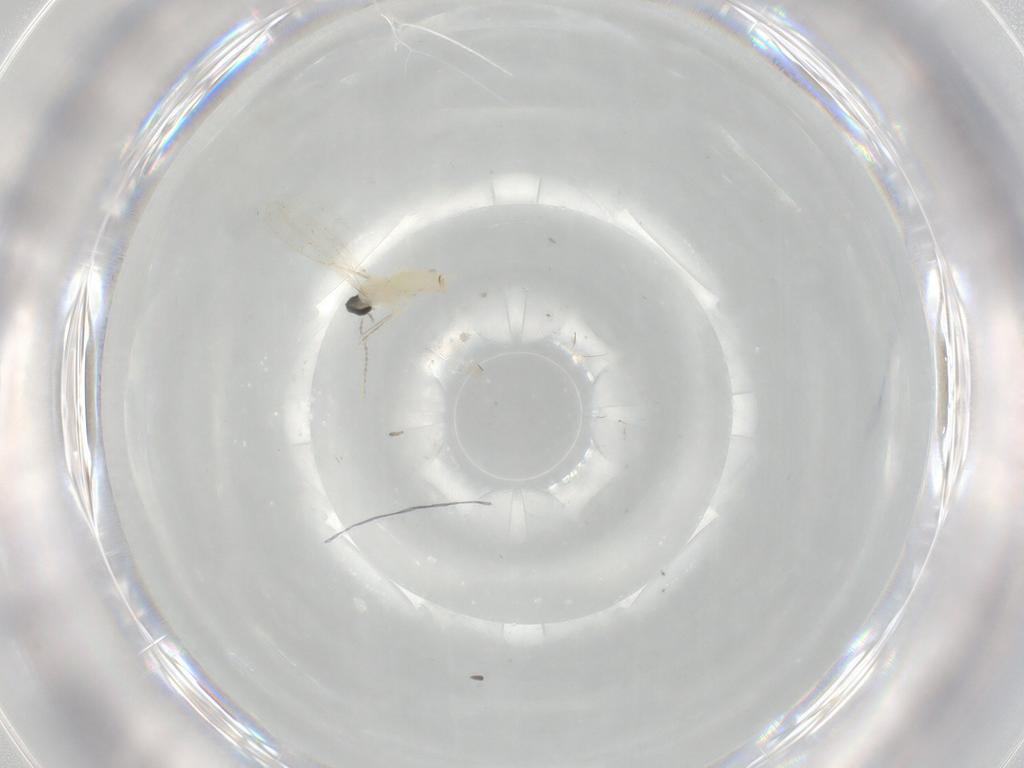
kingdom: Animalia
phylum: Arthropoda
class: Insecta
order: Diptera
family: Cecidomyiidae
